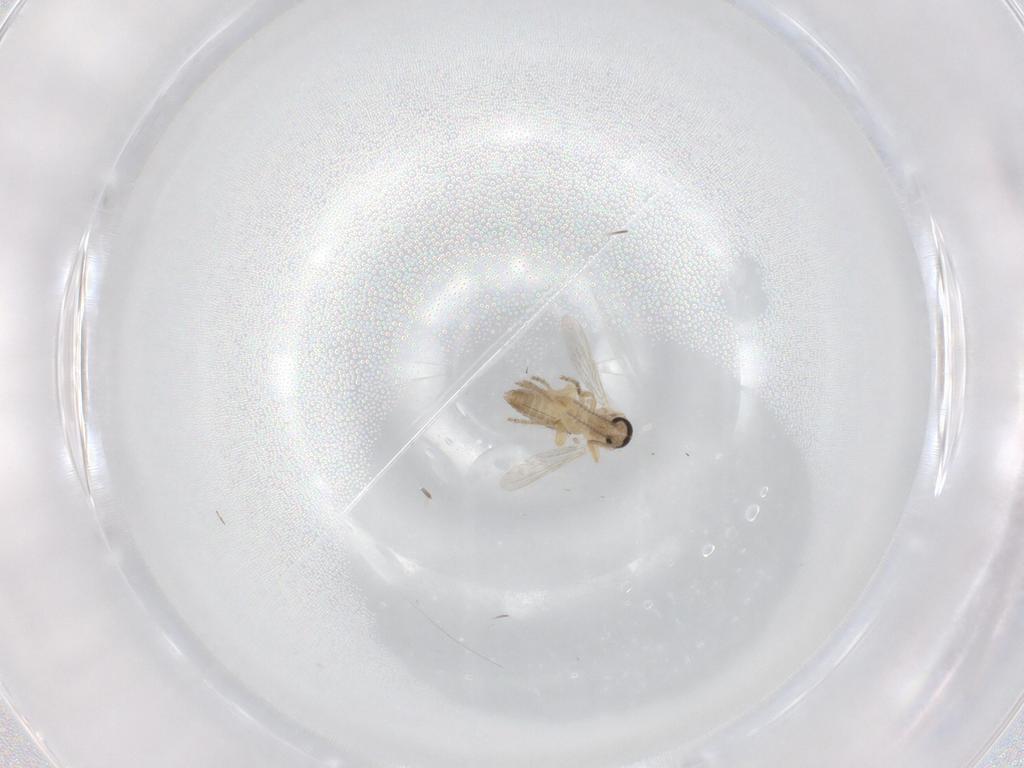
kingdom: Animalia
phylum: Arthropoda
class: Insecta
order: Diptera
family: Ceratopogonidae
